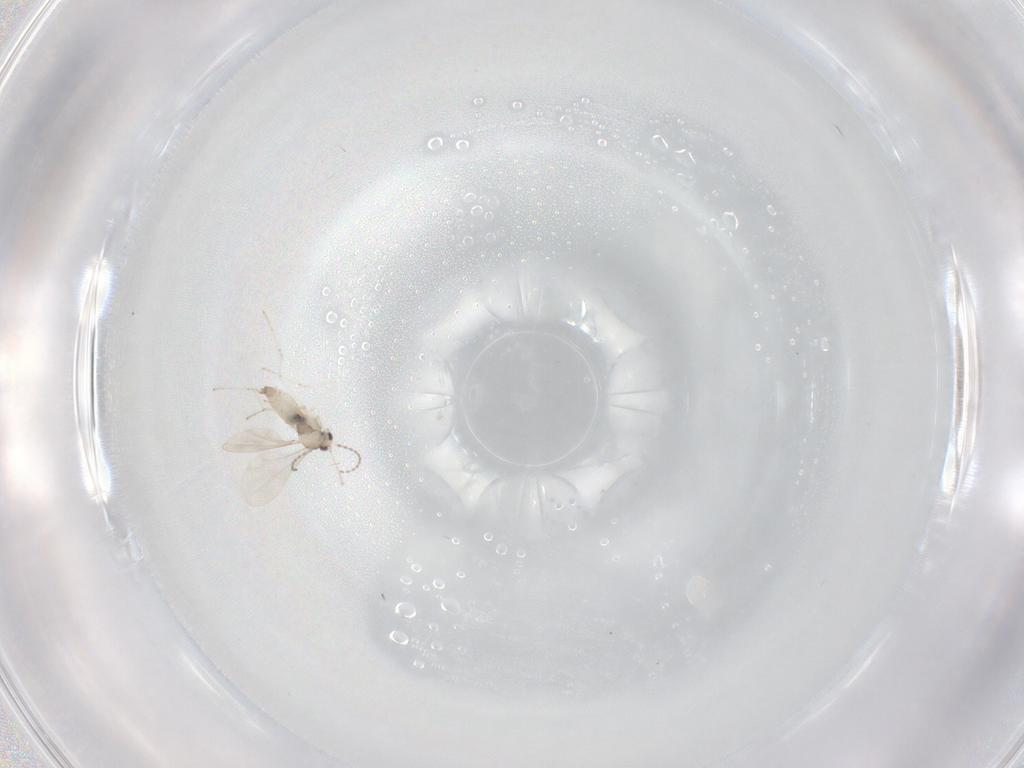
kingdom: Animalia
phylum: Arthropoda
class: Insecta
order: Diptera
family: Cecidomyiidae
